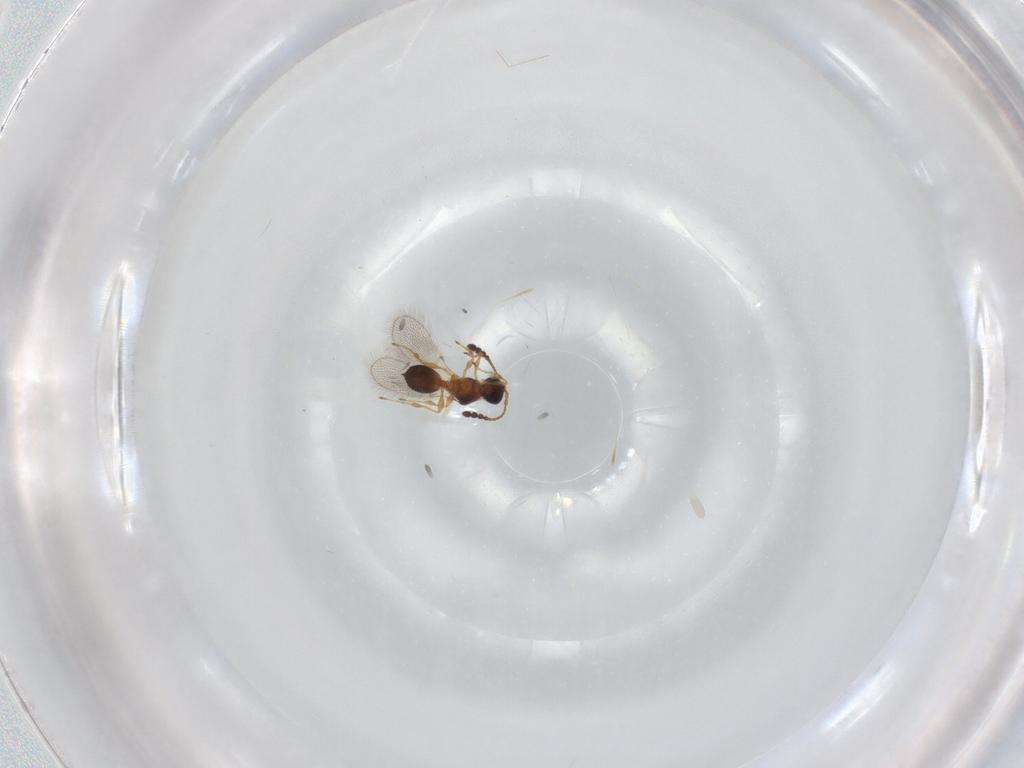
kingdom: Animalia
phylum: Arthropoda
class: Insecta
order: Hymenoptera
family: Diapriidae
